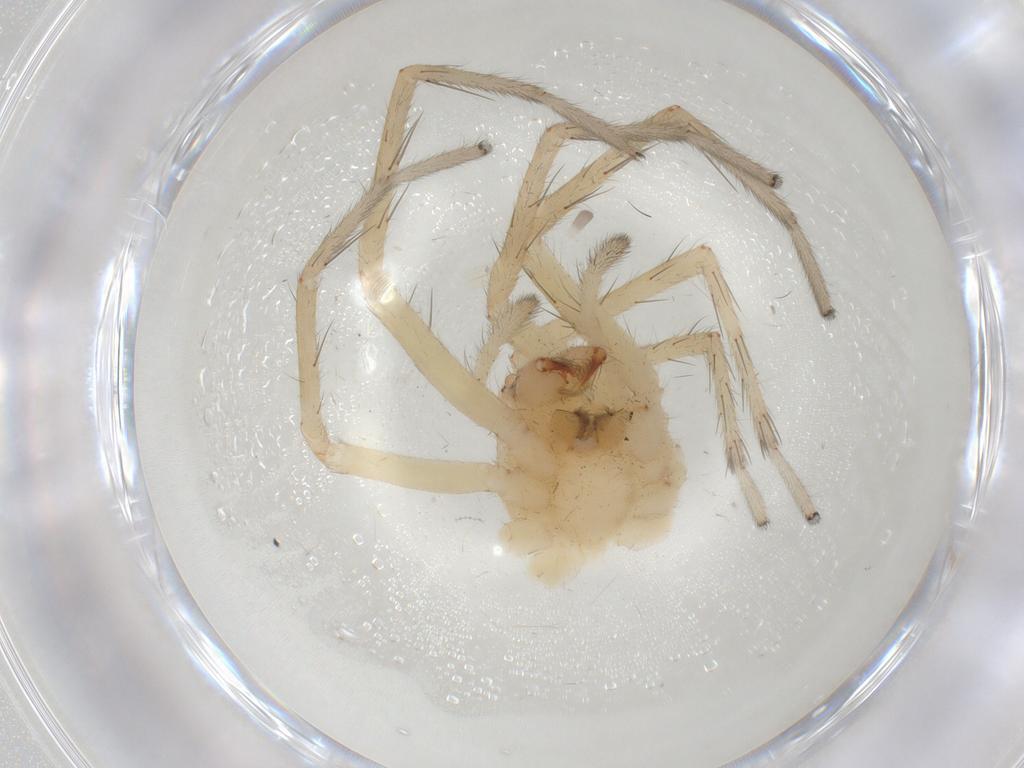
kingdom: Animalia
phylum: Arthropoda
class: Arachnida
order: Araneae
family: Anyphaenidae
